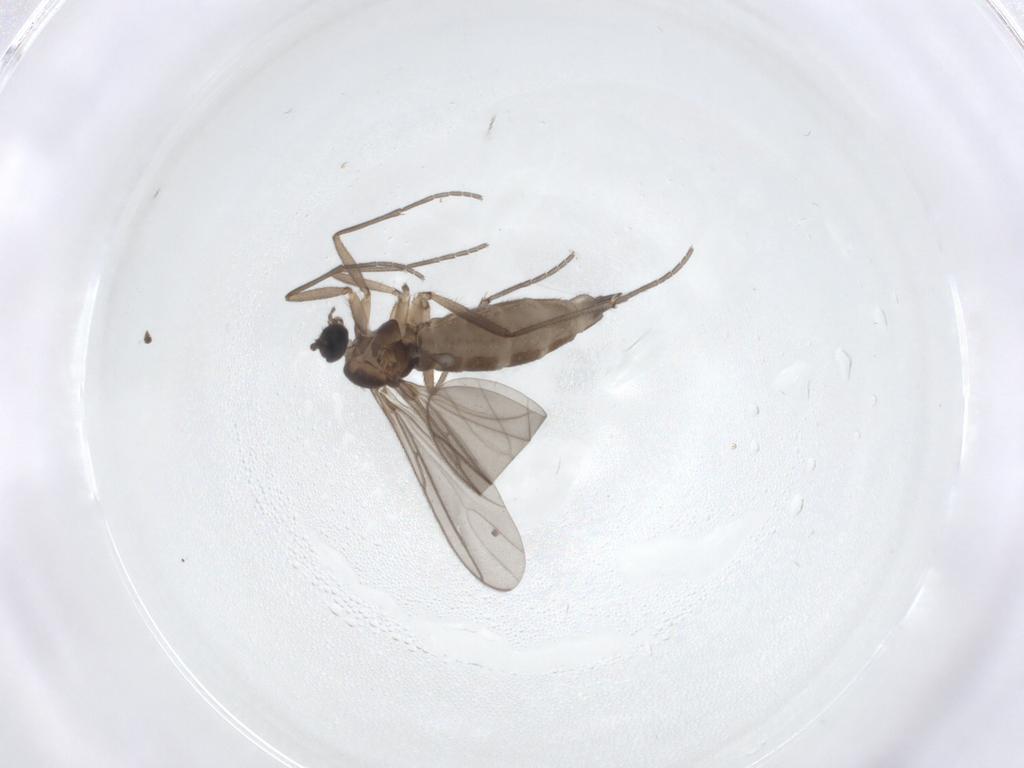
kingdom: Animalia
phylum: Arthropoda
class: Insecta
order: Diptera
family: Sciaridae
